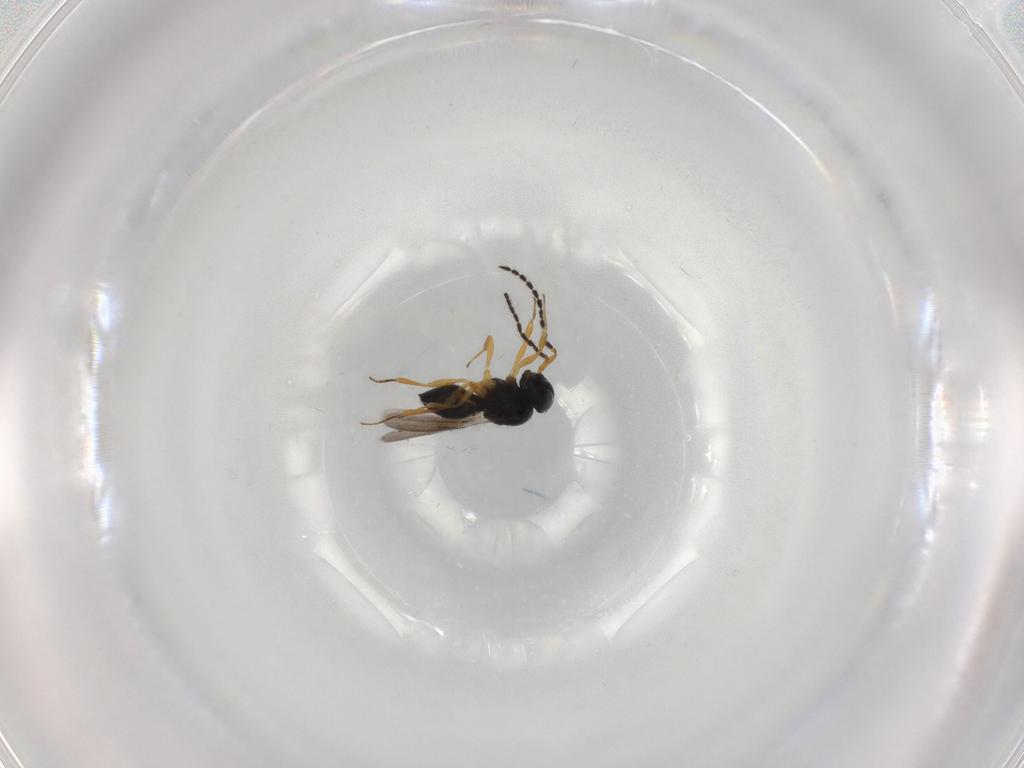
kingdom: Animalia
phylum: Arthropoda
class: Insecta
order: Hymenoptera
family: Scelionidae
